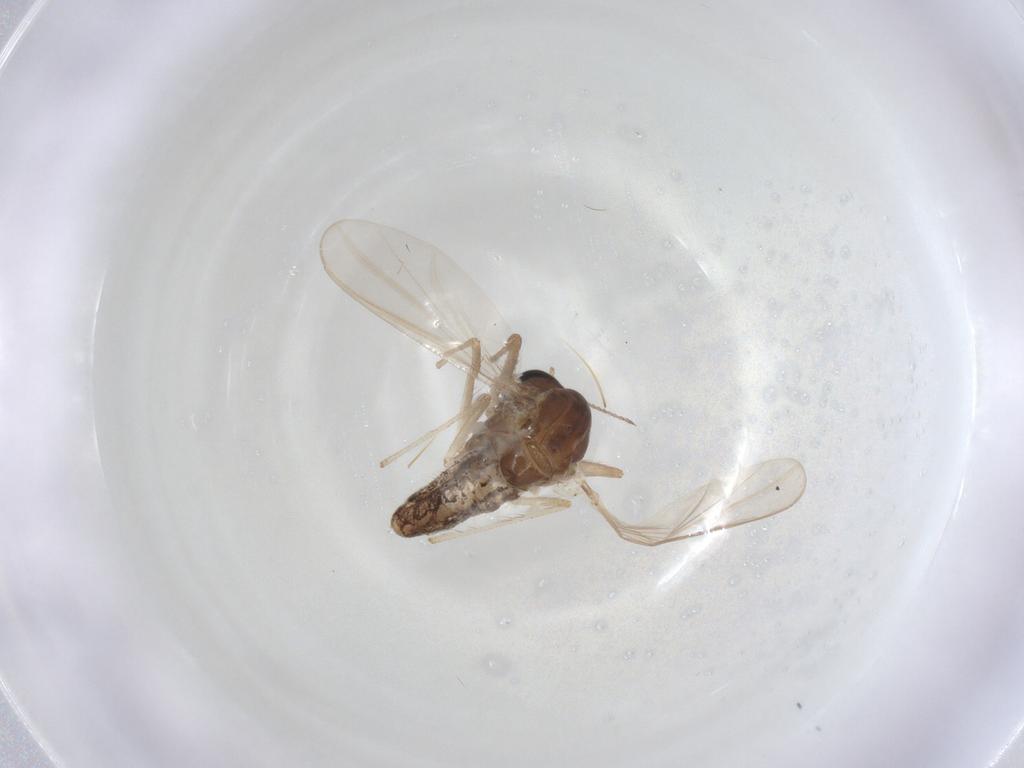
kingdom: Animalia
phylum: Arthropoda
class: Insecta
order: Diptera
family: Chironomidae
